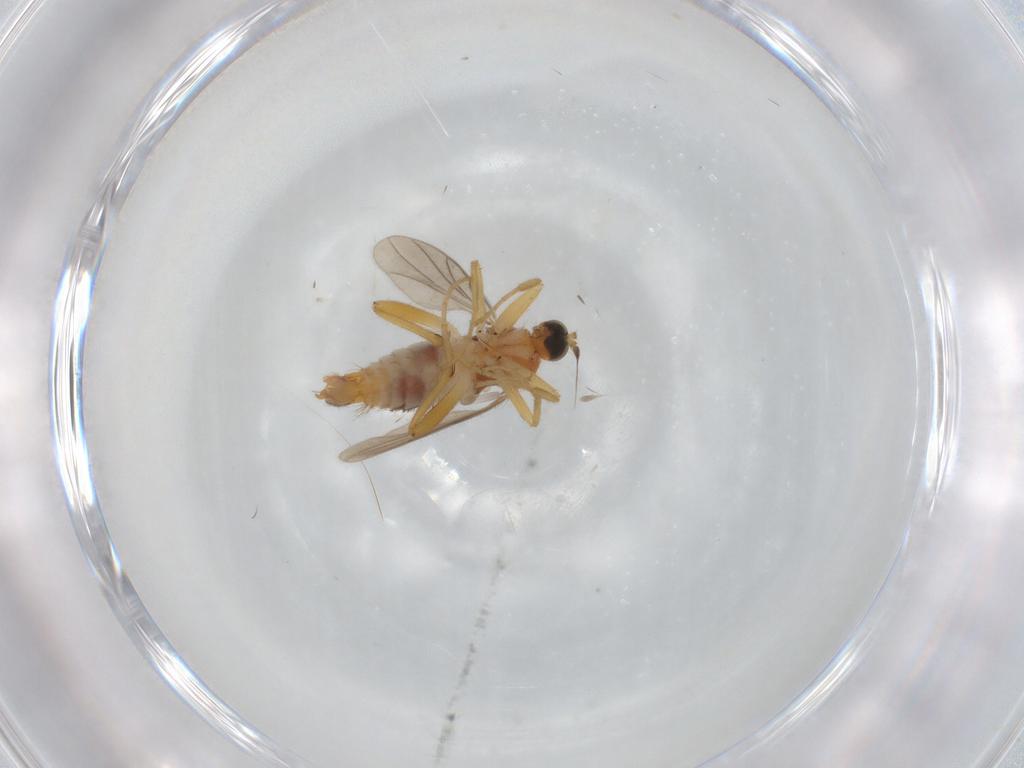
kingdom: Animalia
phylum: Arthropoda
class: Insecta
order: Diptera
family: Hybotidae
